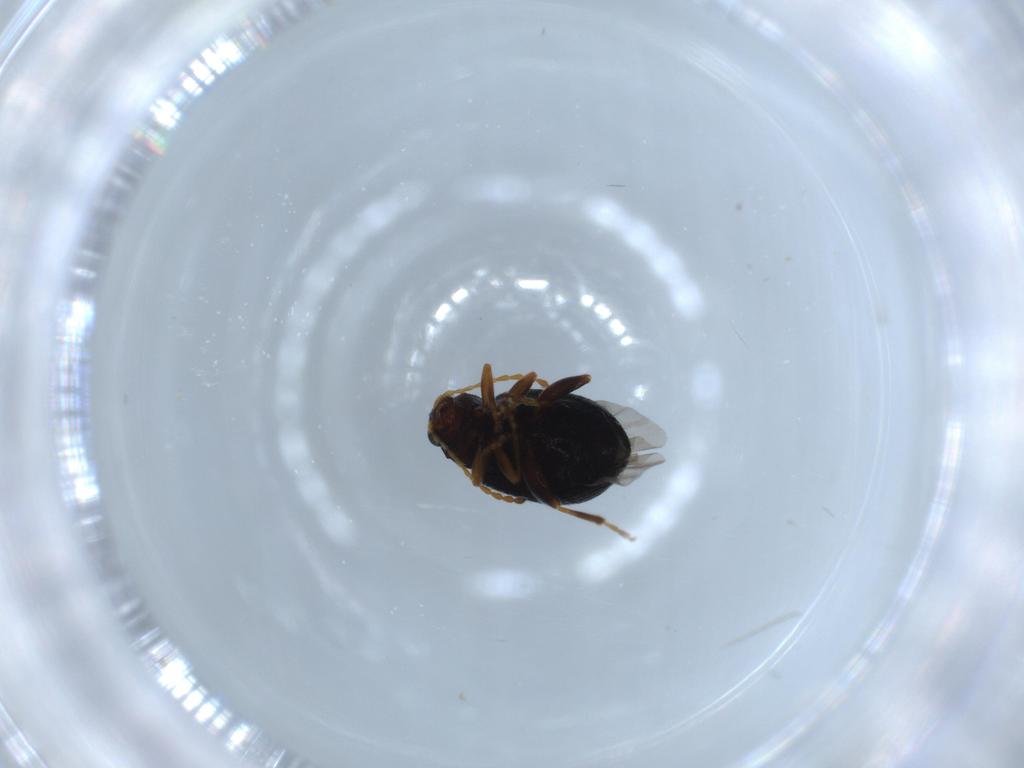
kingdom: Animalia
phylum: Arthropoda
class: Insecta
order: Coleoptera
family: Chrysomelidae
